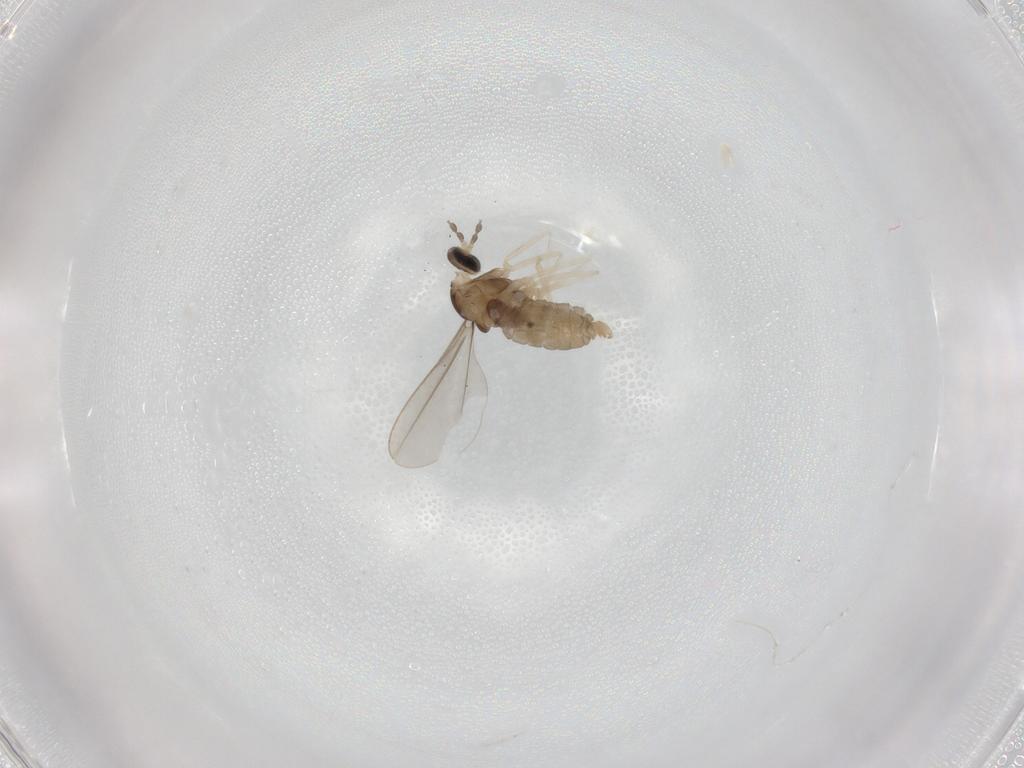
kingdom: Animalia
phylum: Arthropoda
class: Insecta
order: Diptera
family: Cecidomyiidae
